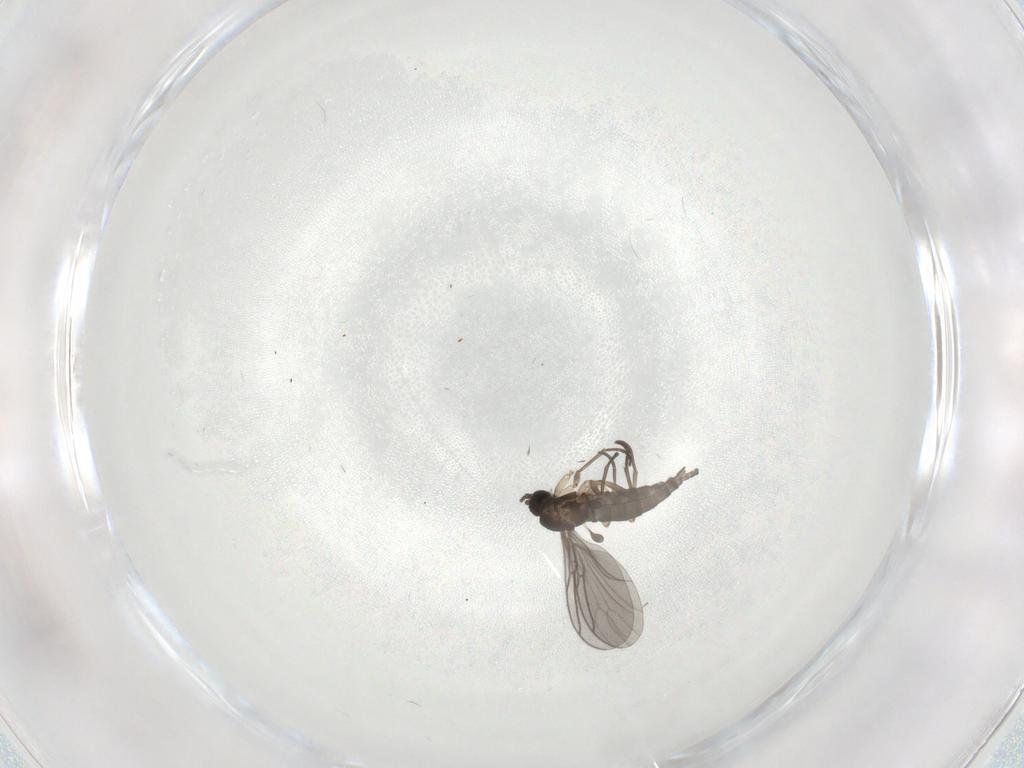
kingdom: Animalia
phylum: Arthropoda
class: Insecta
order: Diptera
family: Sciaridae
